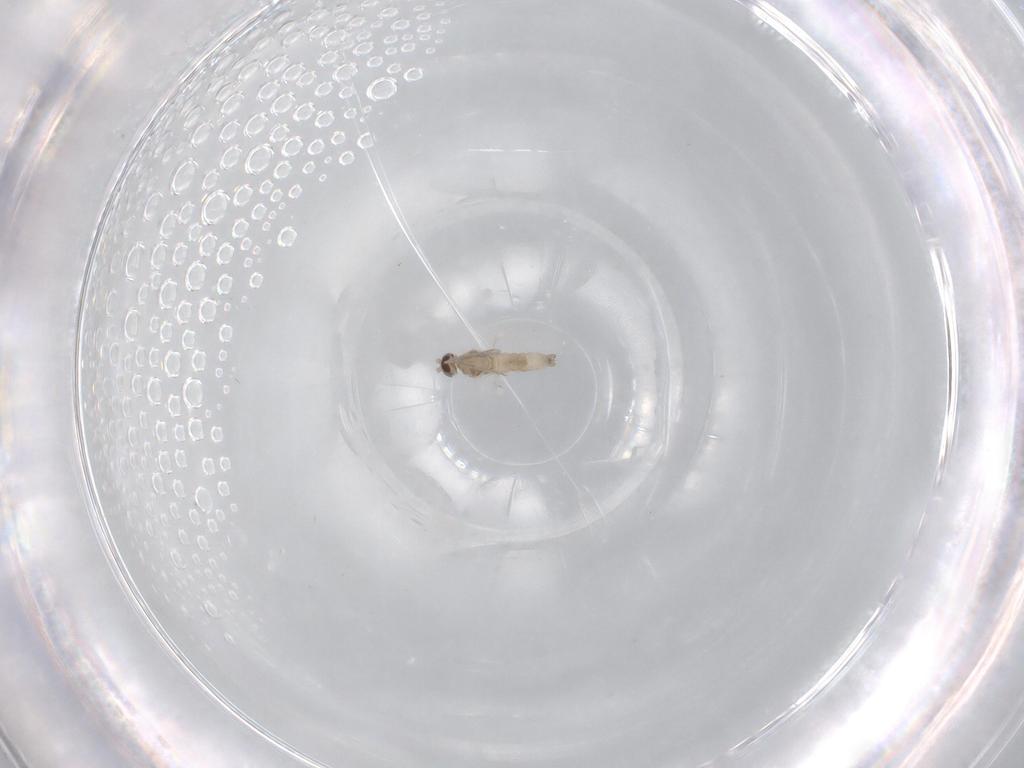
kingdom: Animalia
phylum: Arthropoda
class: Insecta
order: Diptera
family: Cecidomyiidae
